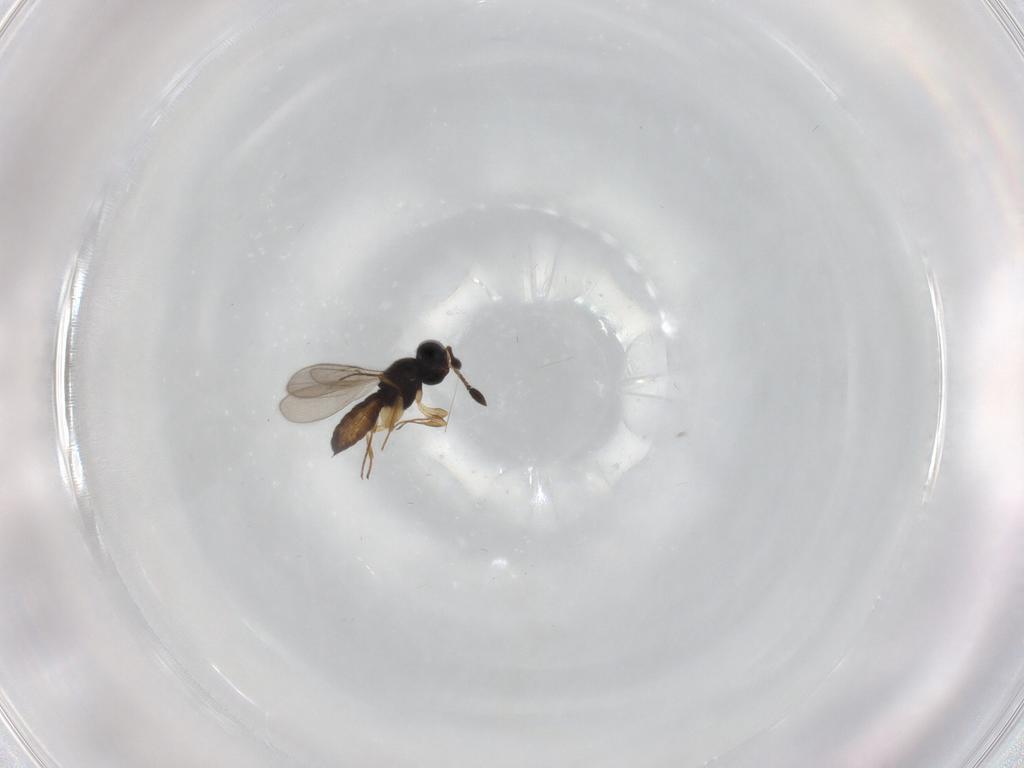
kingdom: Animalia
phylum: Arthropoda
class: Insecta
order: Hymenoptera
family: Scelionidae
